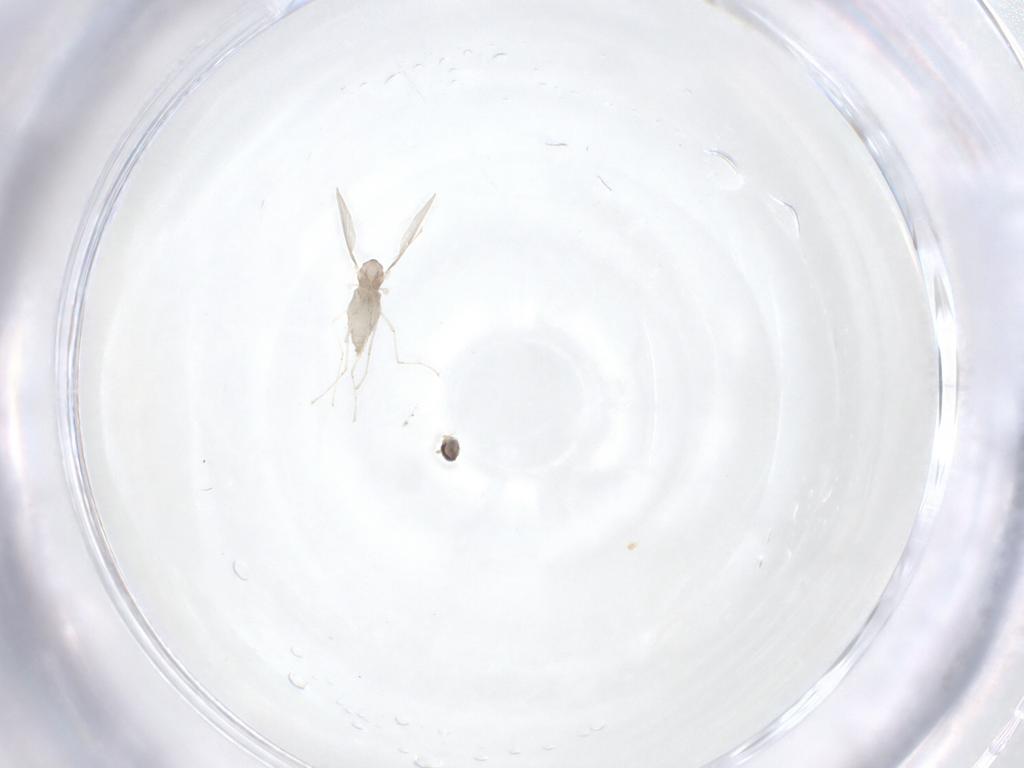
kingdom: Animalia
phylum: Arthropoda
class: Insecta
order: Diptera
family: Cecidomyiidae
